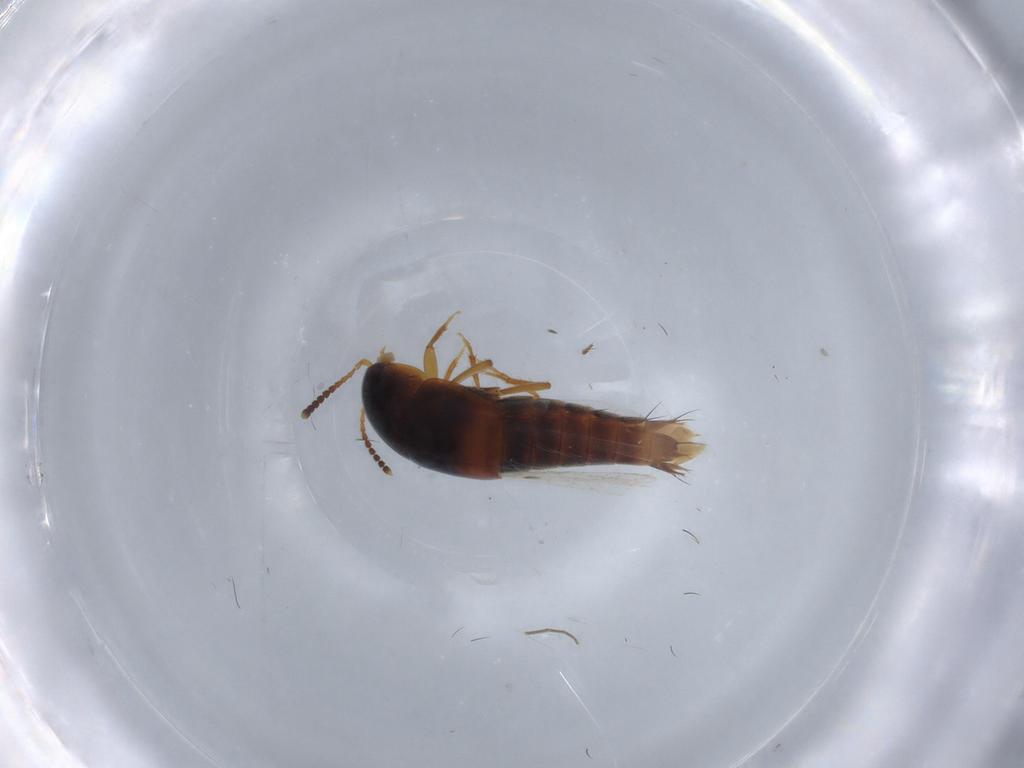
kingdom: Animalia
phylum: Arthropoda
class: Insecta
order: Coleoptera
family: Staphylinidae
